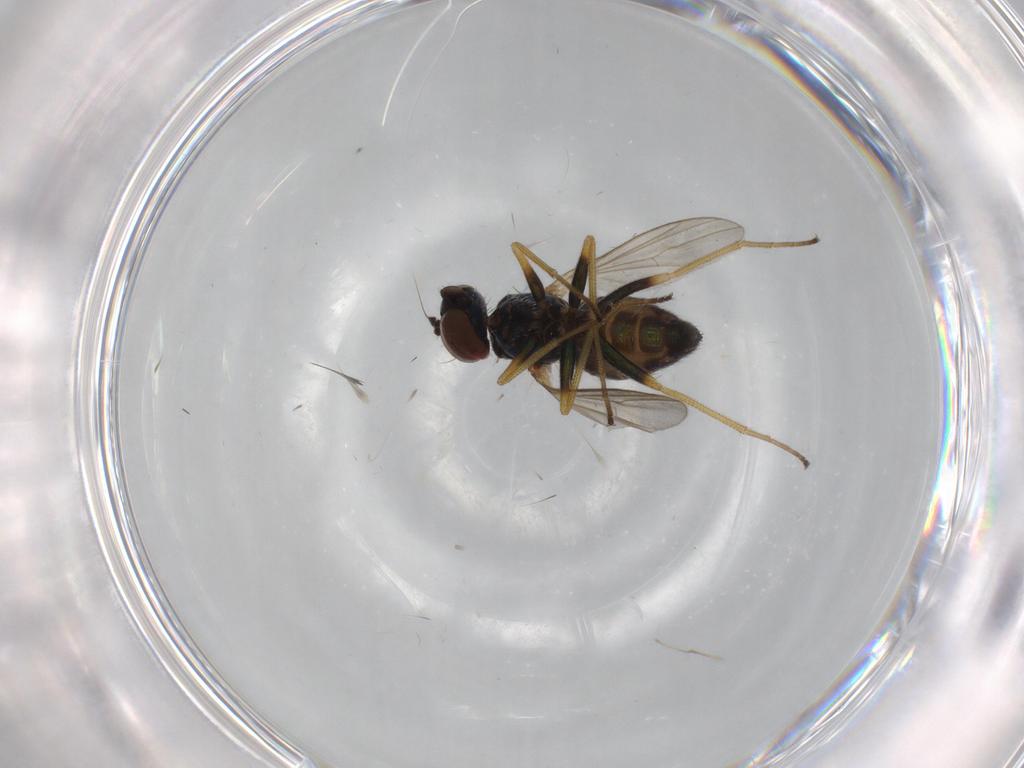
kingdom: Animalia
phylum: Arthropoda
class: Insecta
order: Diptera
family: Dolichopodidae
